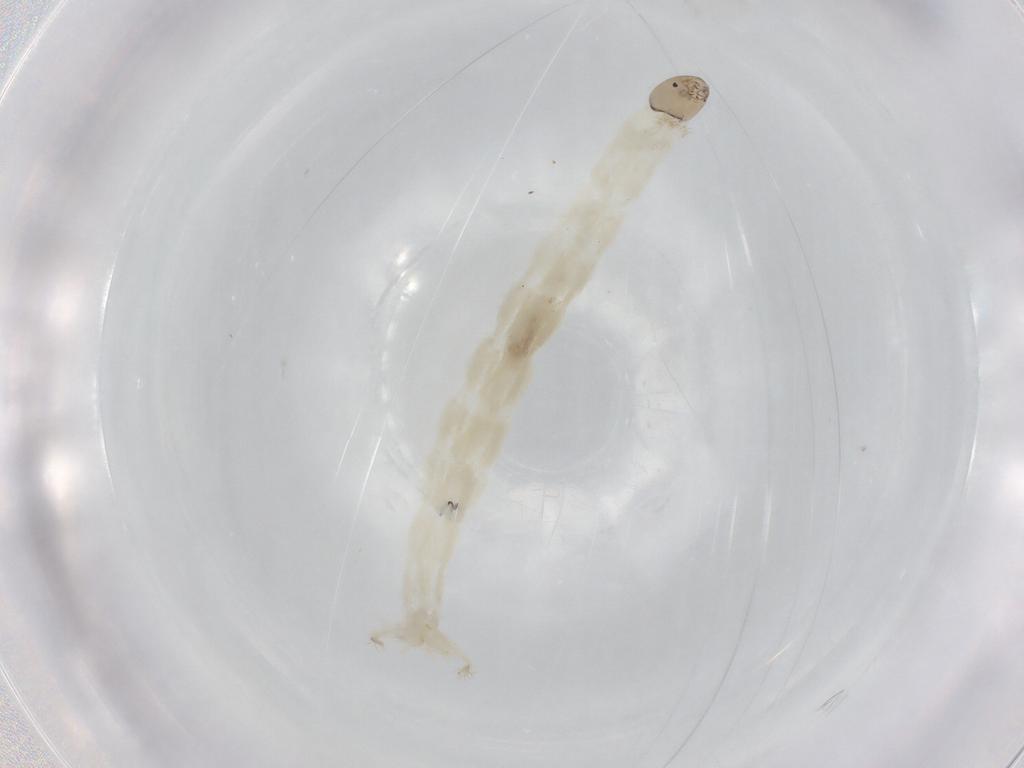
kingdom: Animalia
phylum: Arthropoda
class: Insecta
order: Diptera
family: Chironomidae
